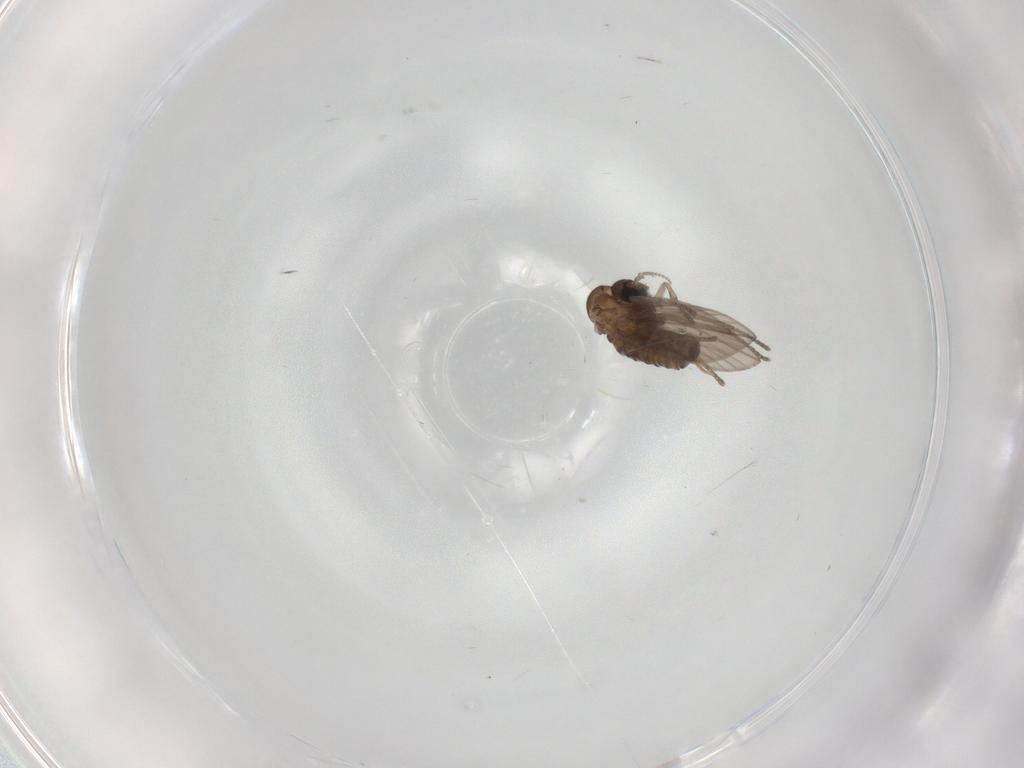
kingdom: Animalia
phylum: Arthropoda
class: Insecta
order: Diptera
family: Psychodidae
